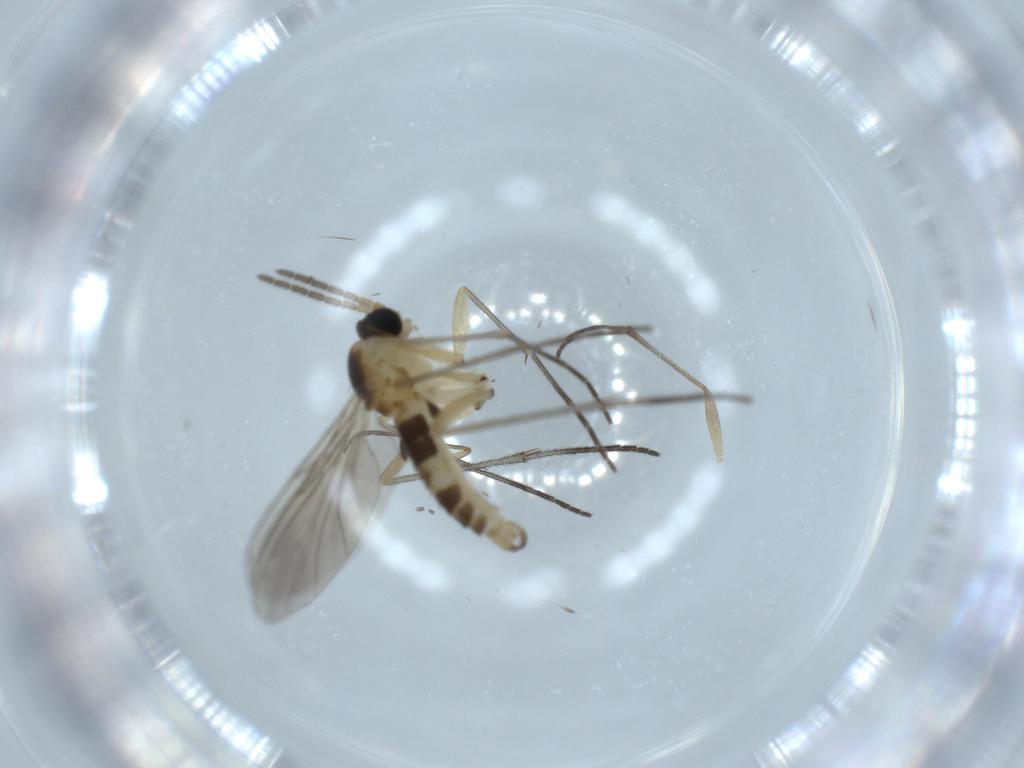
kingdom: Animalia
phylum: Arthropoda
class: Insecta
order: Diptera
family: Sciaridae
